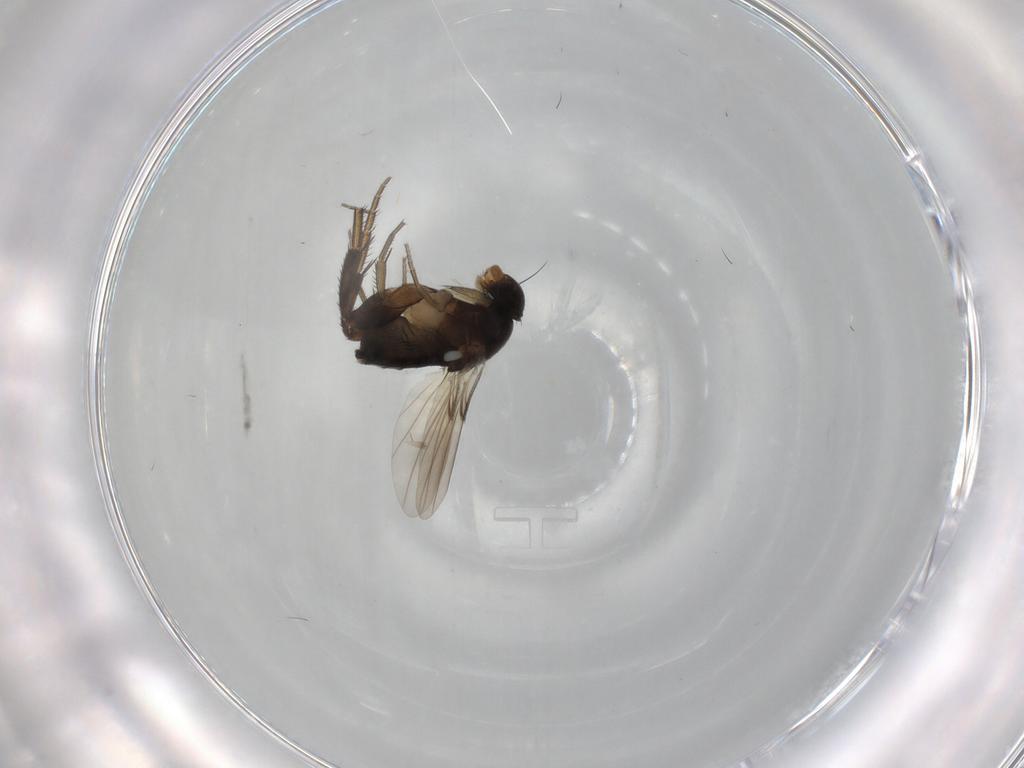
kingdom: Animalia
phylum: Arthropoda
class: Insecta
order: Diptera
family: Phoridae
